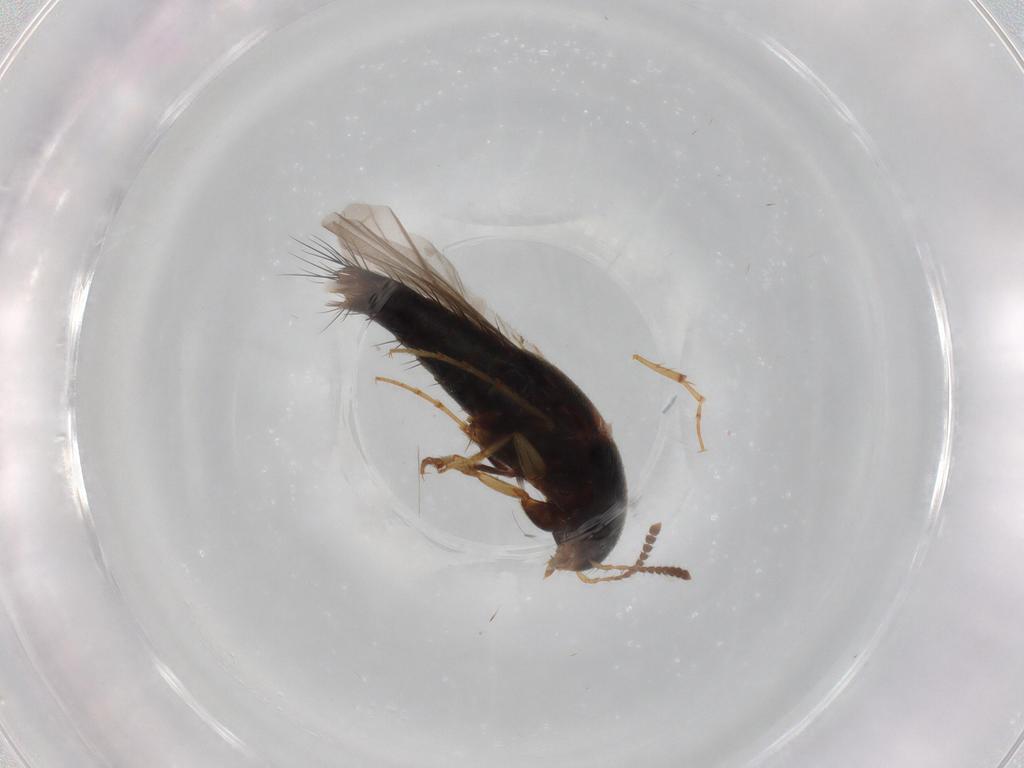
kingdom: Animalia
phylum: Arthropoda
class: Insecta
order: Coleoptera
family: Staphylinidae
